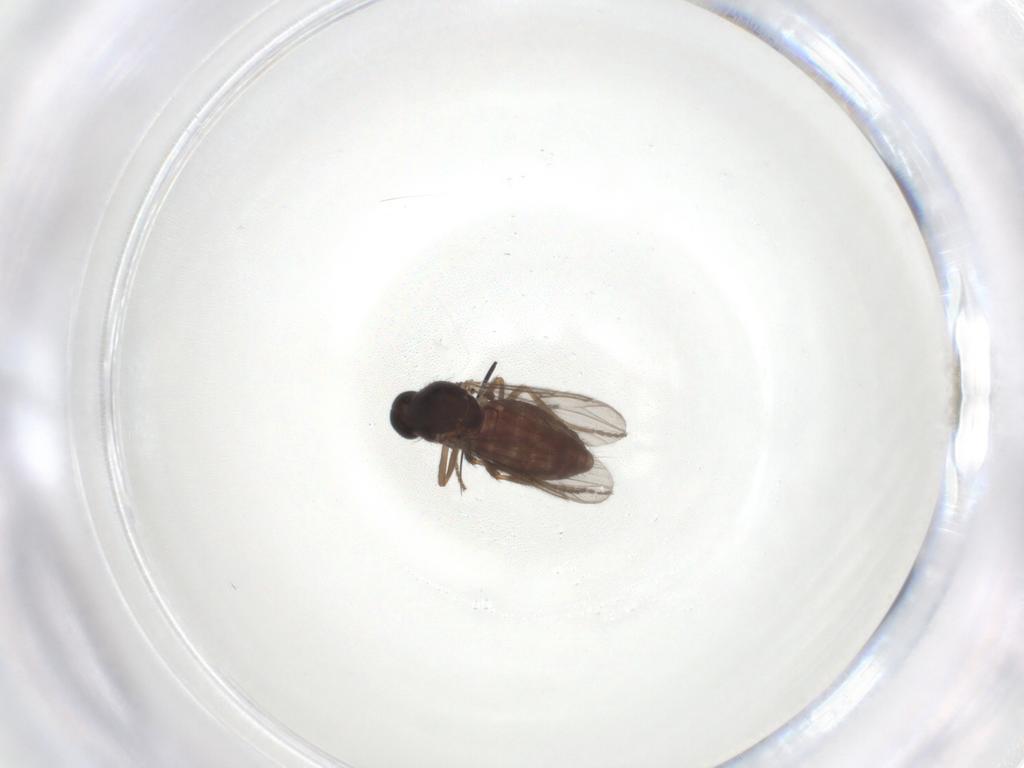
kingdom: Animalia
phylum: Arthropoda
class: Insecta
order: Diptera
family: Ceratopogonidae
